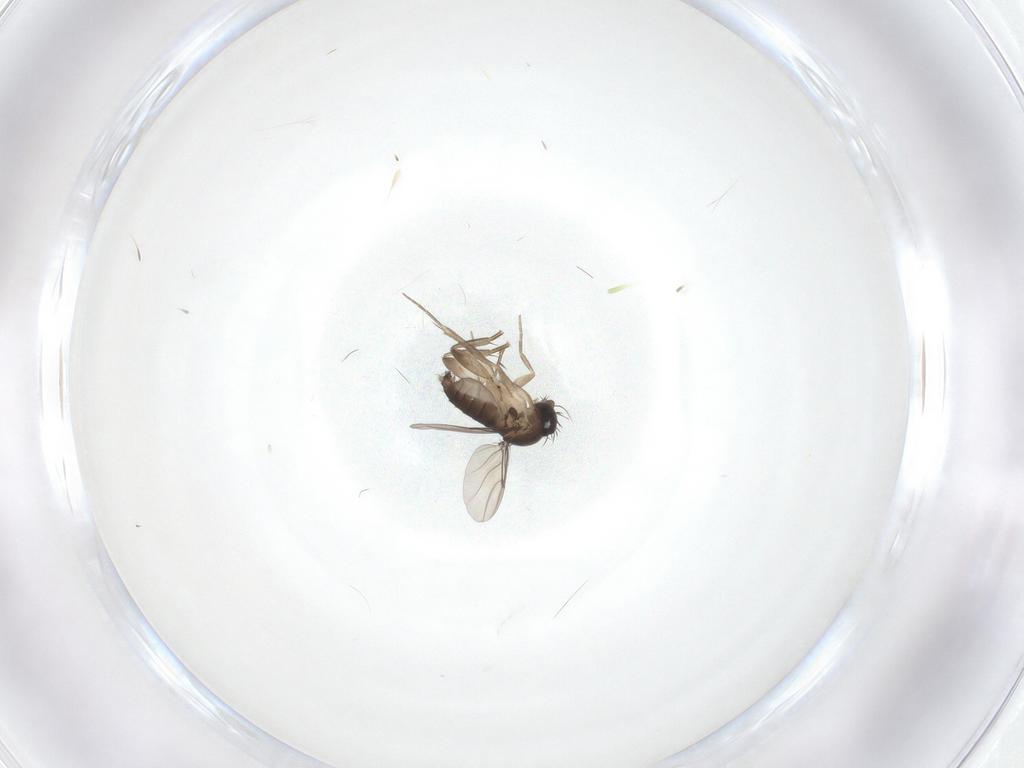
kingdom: Animalia
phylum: Arthropoda
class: Insecta
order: Diptera
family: Phoridae
